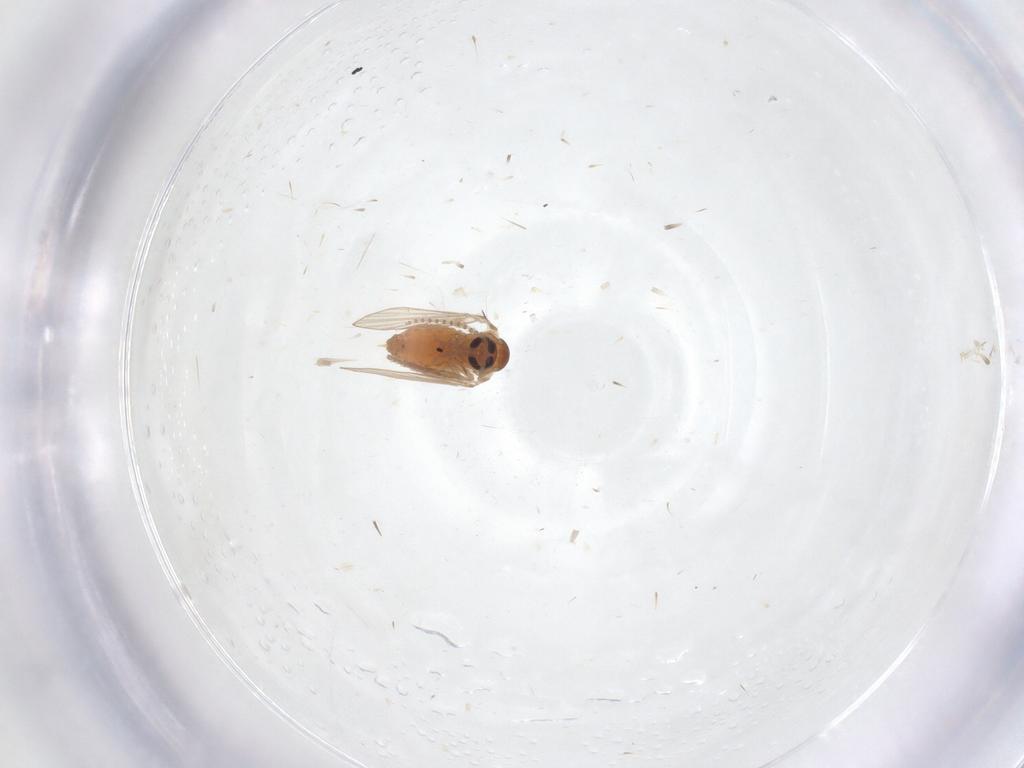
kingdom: Animalia
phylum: Arthropoda
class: Insecta
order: Diptera
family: Psychodidae
